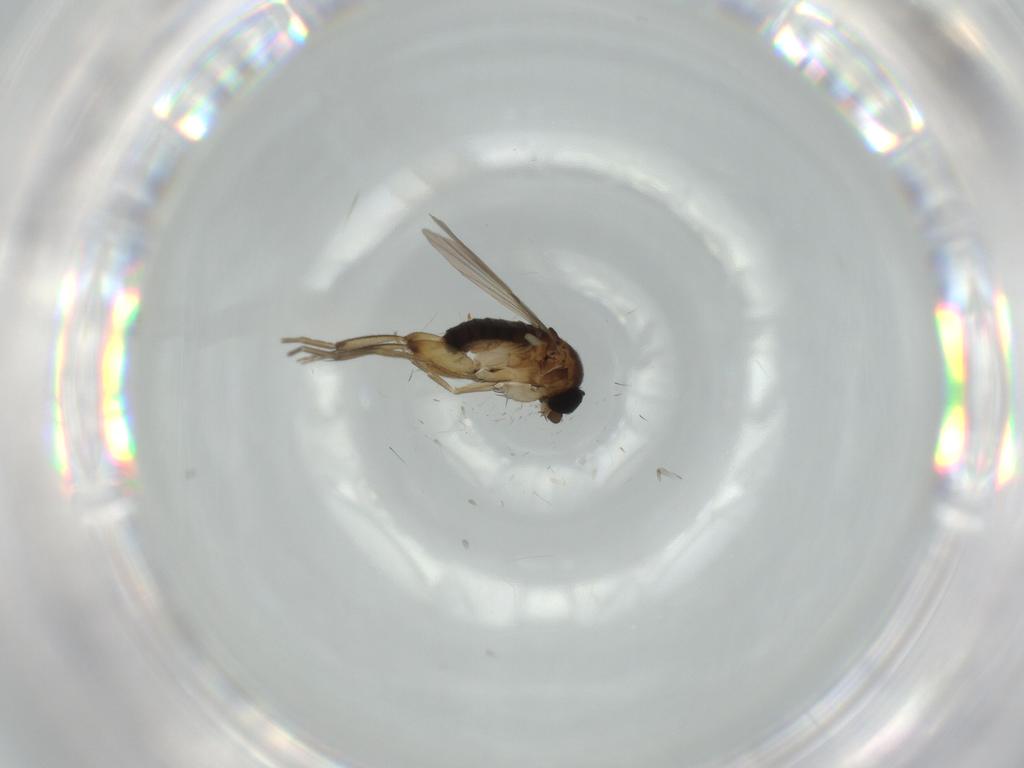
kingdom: Animalia
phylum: Arthropoda
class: Insecta
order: Diptera
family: Phoridae
